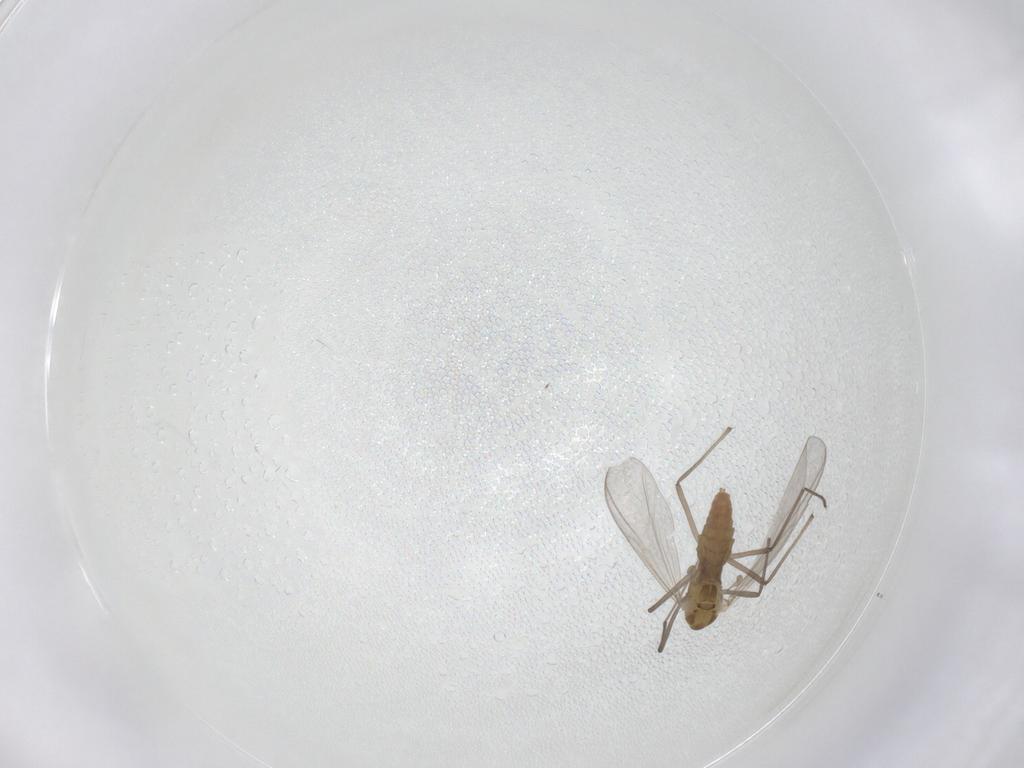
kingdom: Animalia
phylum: Arthropoda
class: Insecta
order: Diptera
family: Chironomidae
